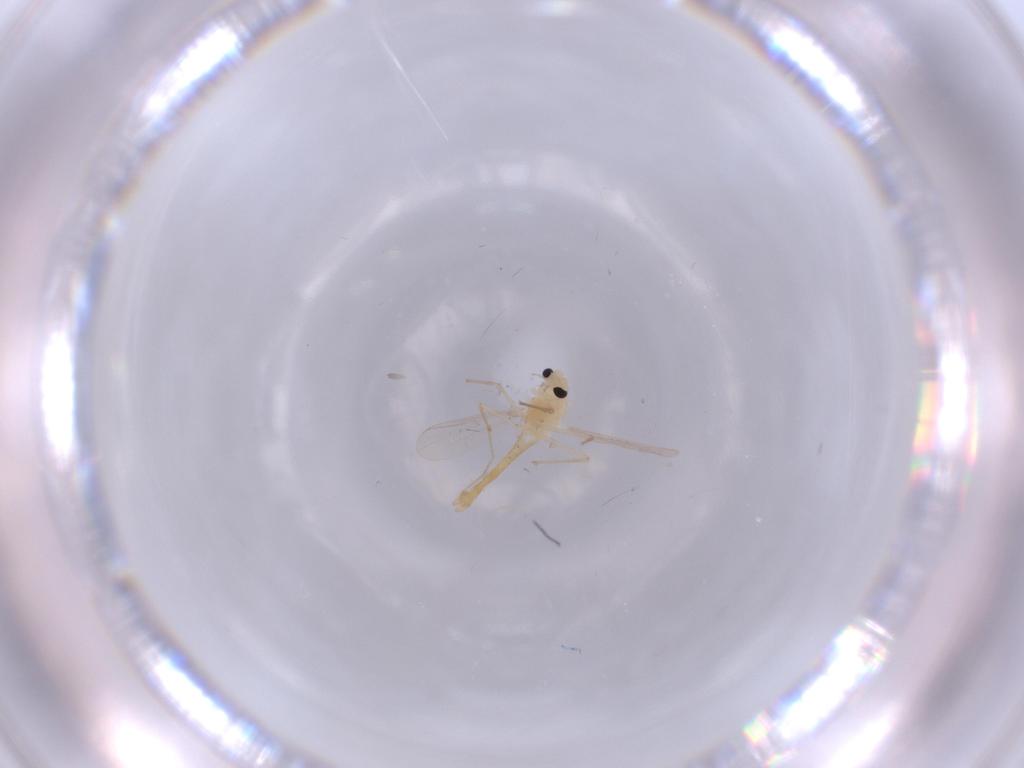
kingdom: Animalia
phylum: Arthropoda
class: Insecta
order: Diptera
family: Chironomidae
